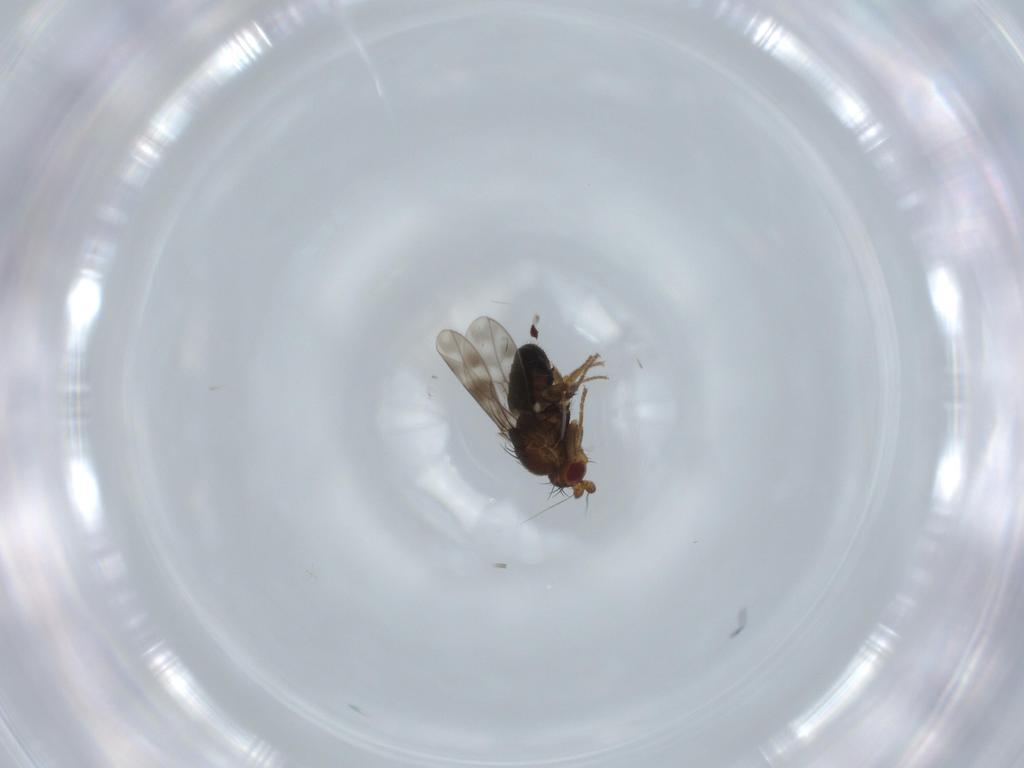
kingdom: Animalia
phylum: Arthropoda
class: Insecta
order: Diptera
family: Sphaeroceridae
